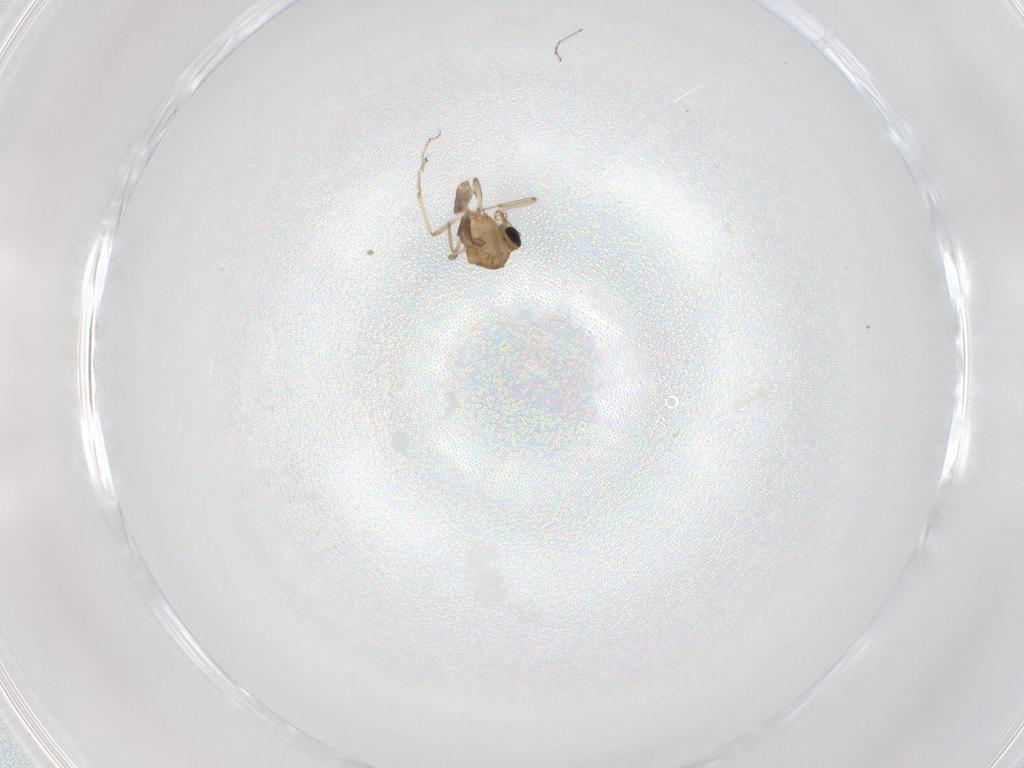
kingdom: Animalia
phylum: Arthropoda
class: Insecta
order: Diptera
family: Ceratopogonidae
